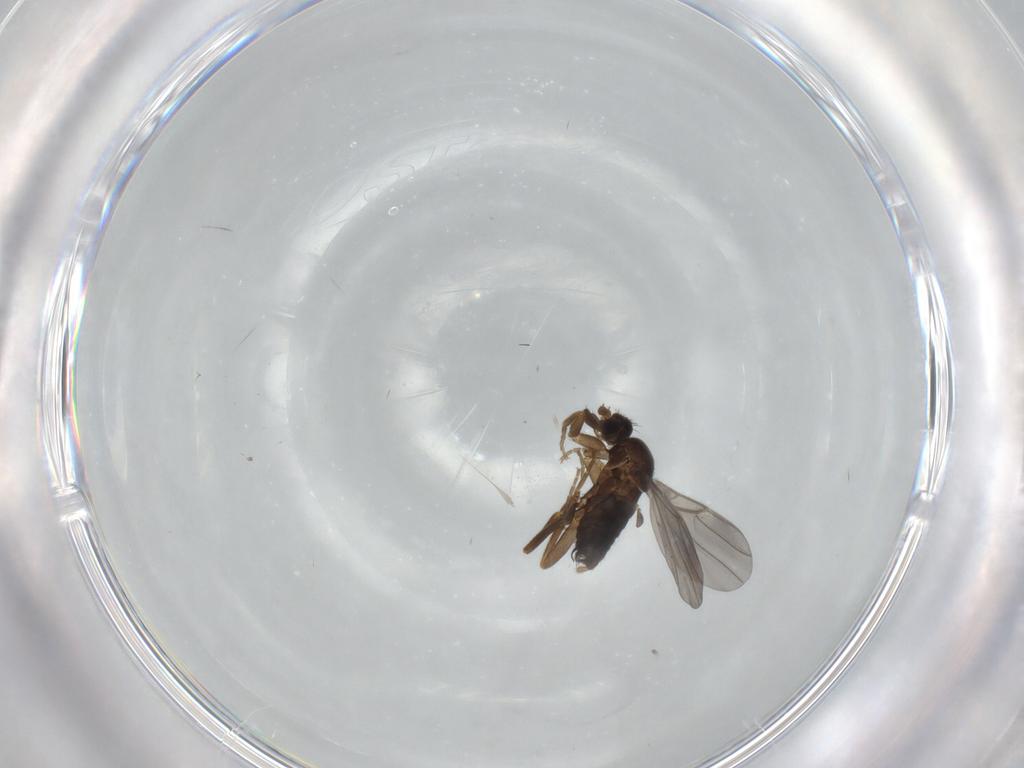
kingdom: Animalia
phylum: Arthropoda
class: Insecta
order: Diptera
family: Phoridae
